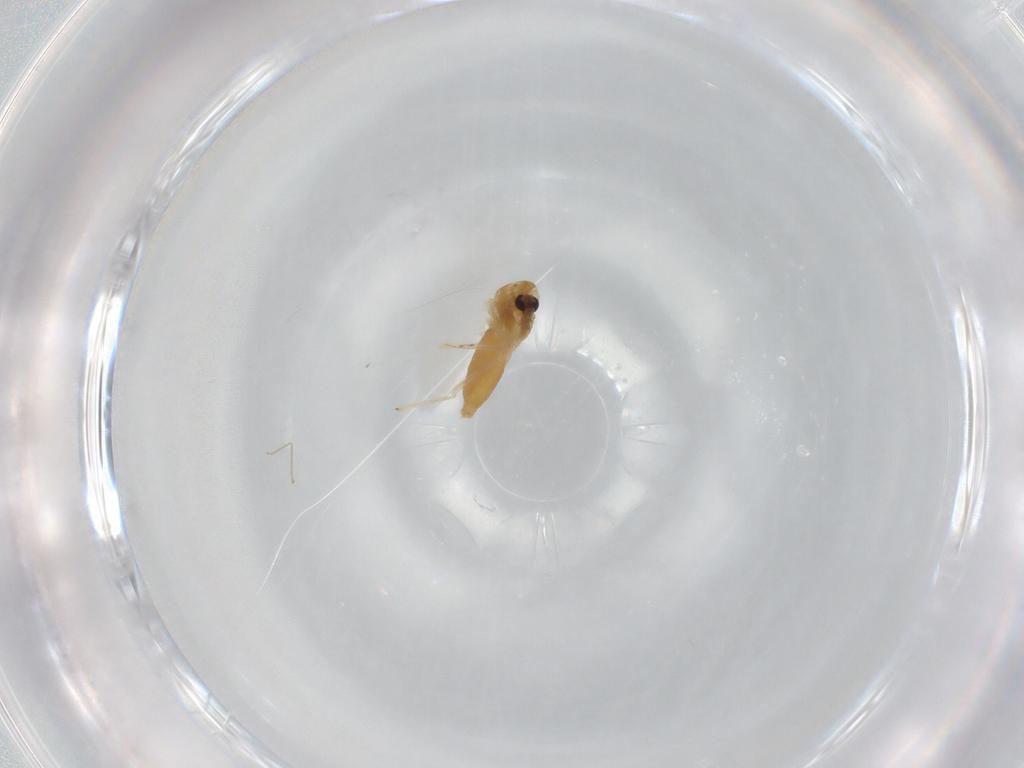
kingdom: Animalia
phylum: Arthropoda
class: Insecta
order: Diptera
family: Chironomidae
